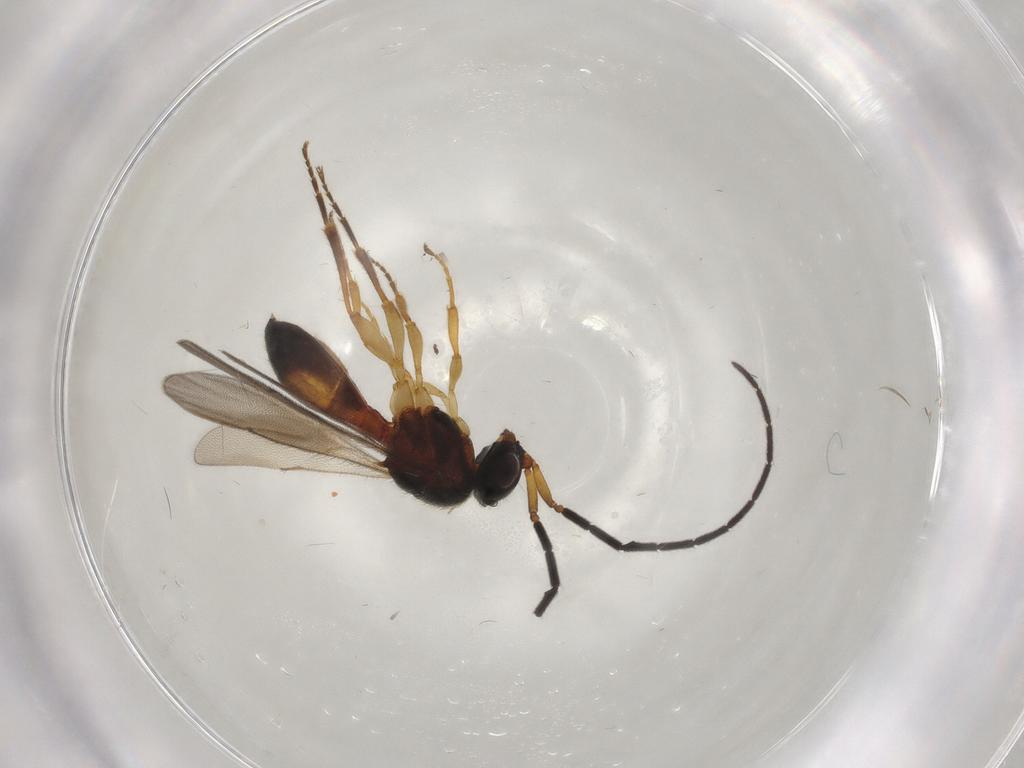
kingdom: Animalia
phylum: Arthropoda
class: Insecta
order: Hymenoptera
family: Scelionidae
